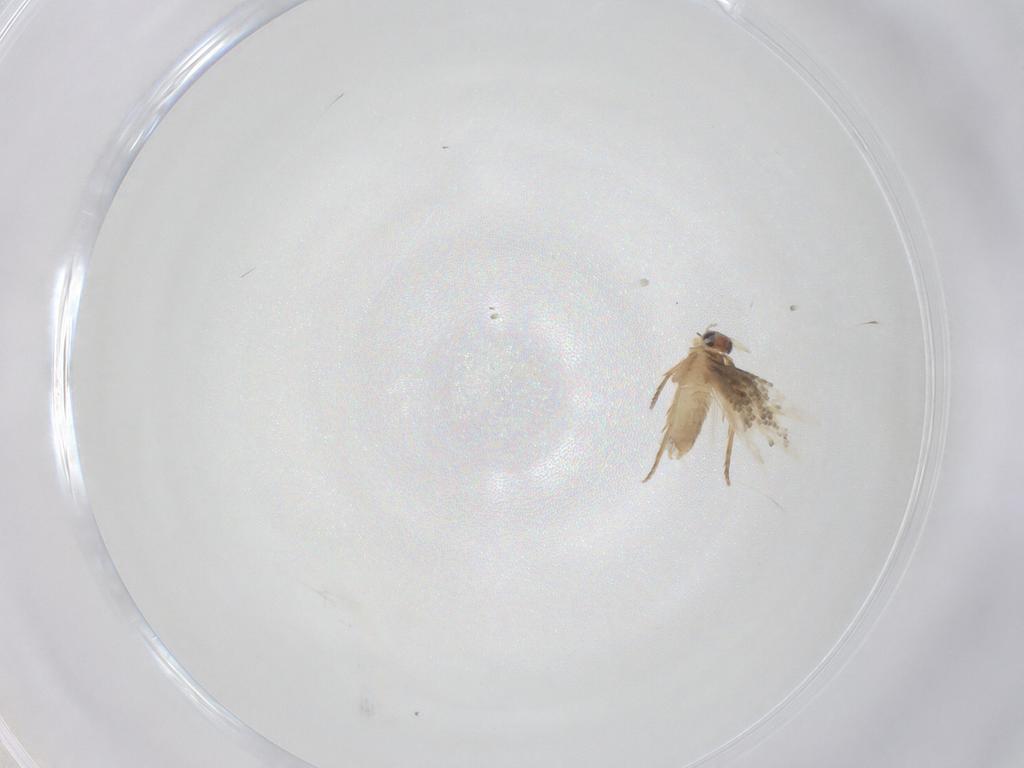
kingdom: Animalia
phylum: Arthropoda
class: Insecta
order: Lepidoptera
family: Nepticulidae
